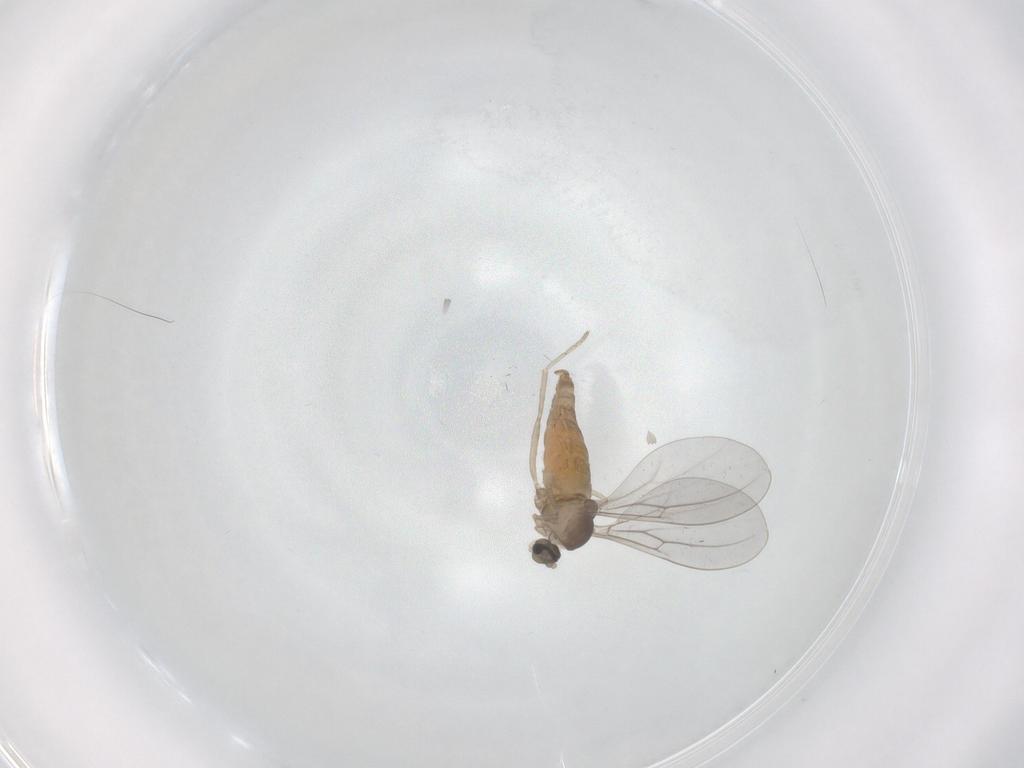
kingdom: Animalia
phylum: Arthropoda
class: Insecta
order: Diptera
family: Cecidomyiidae
